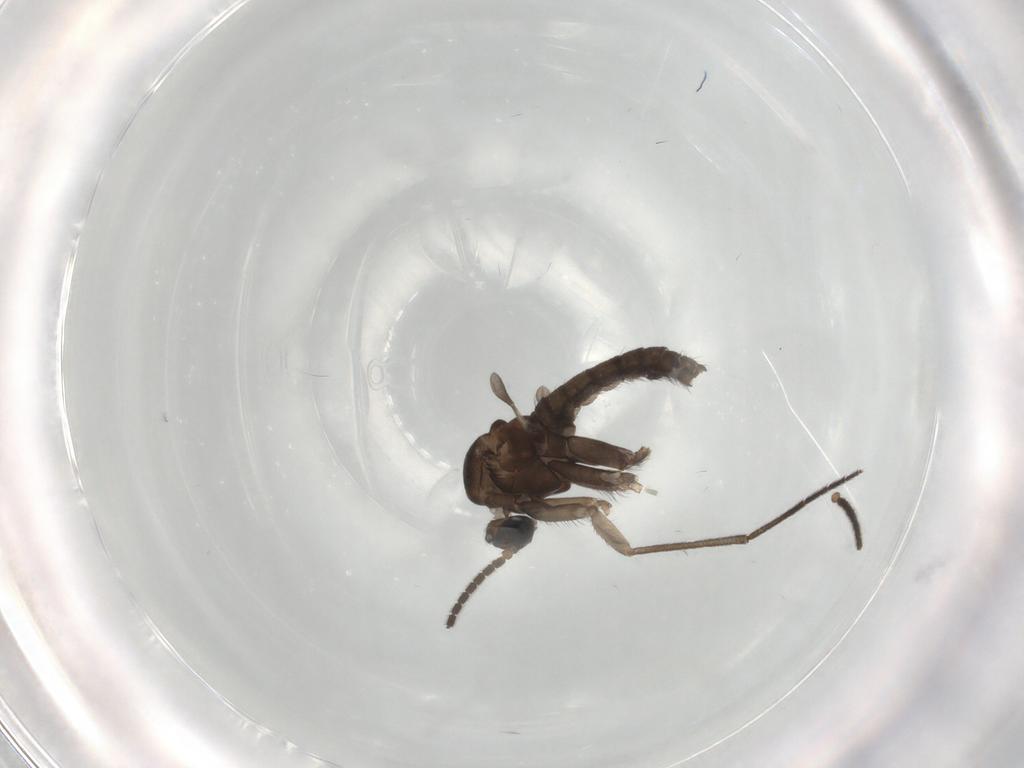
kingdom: Animalia
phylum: Arthropoda
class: Insecta
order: Diptera
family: Sciaridae
